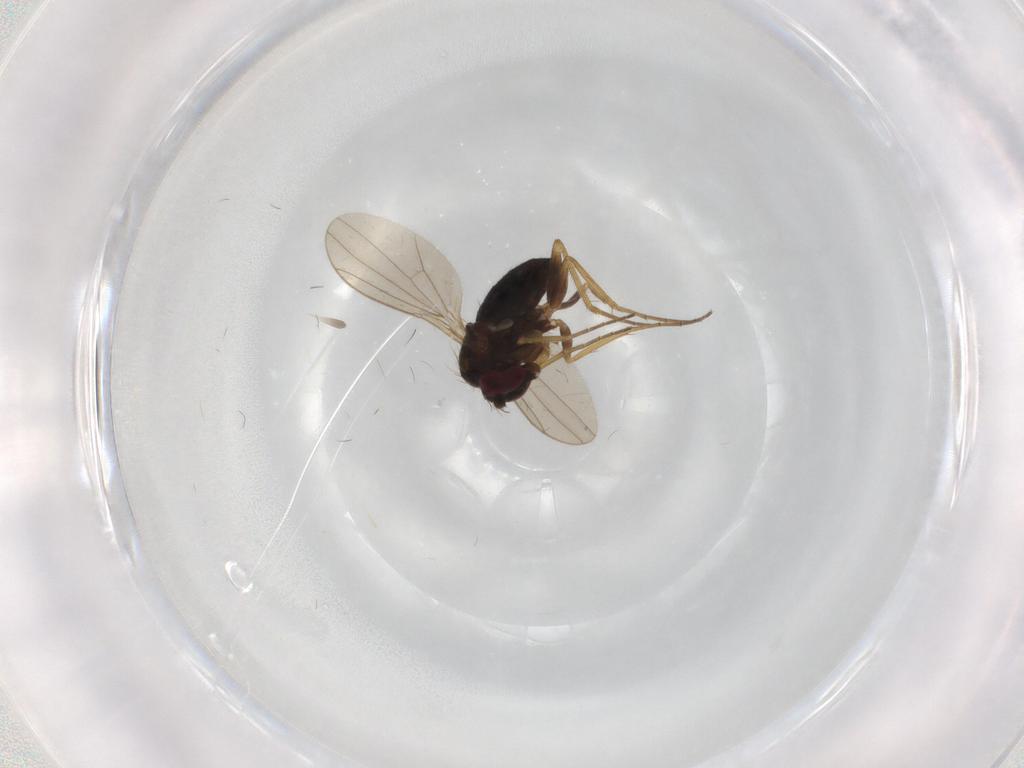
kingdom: Animalia
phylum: Arthropoda
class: Insecta
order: Diptera
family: Dolichopodidae
